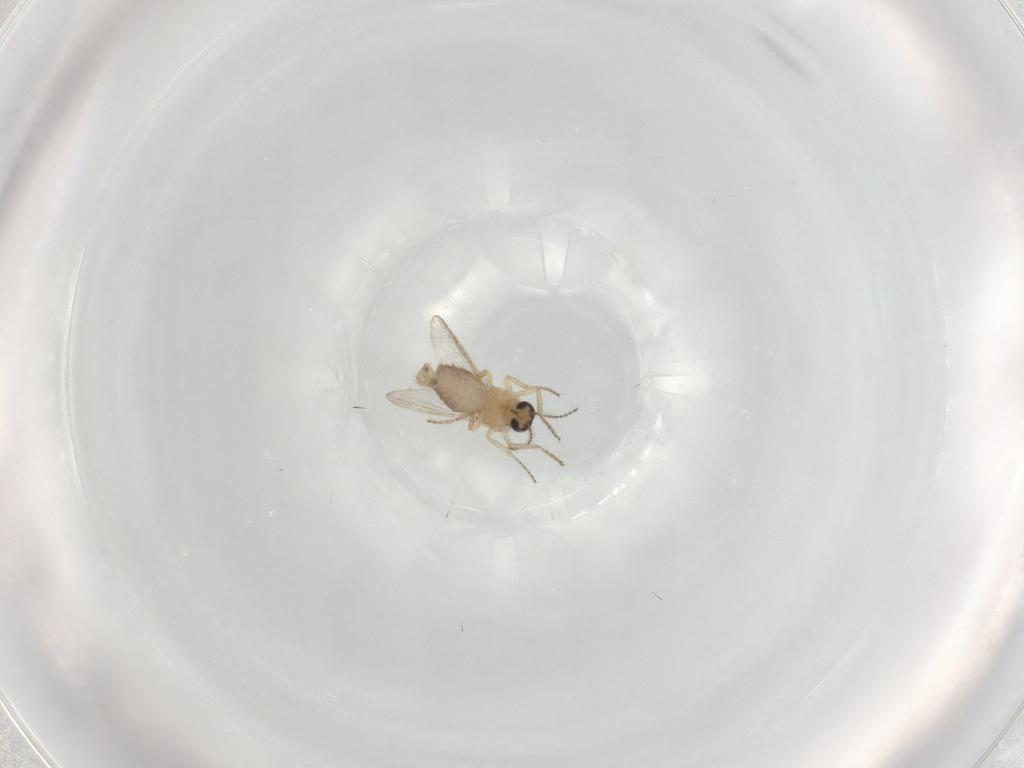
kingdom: Animalia
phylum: Arthropoda
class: Insecta
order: Diptera
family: Ceratopogonidae
